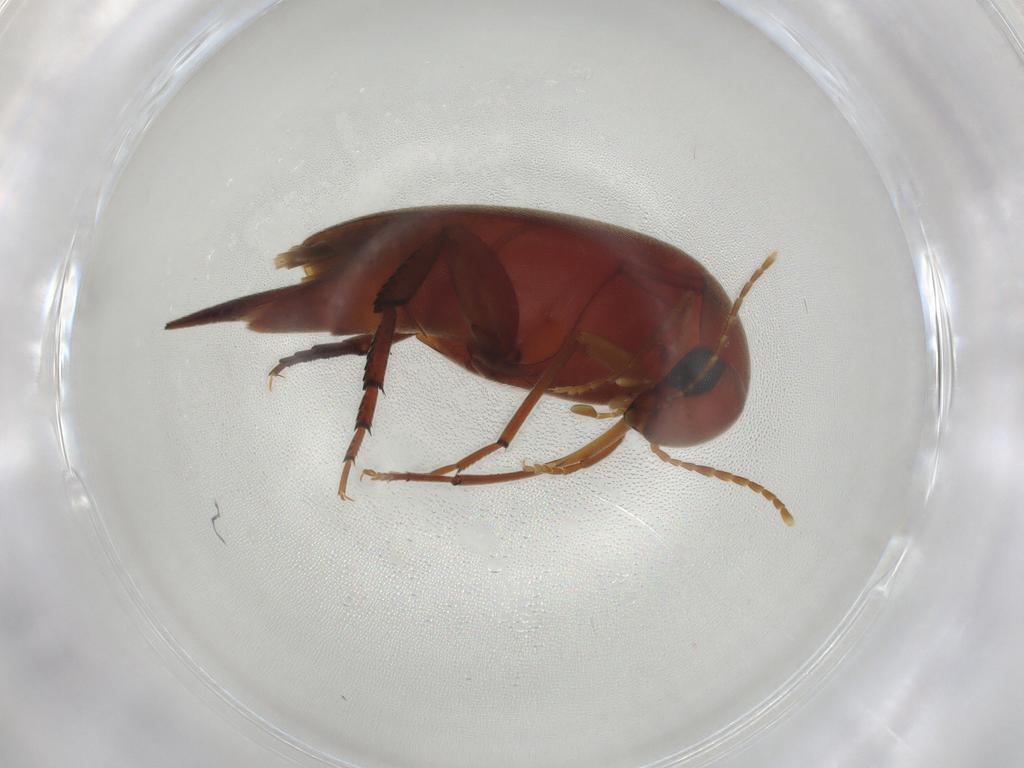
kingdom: Animalia
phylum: Arthropoda
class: Insecta
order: Coleoptera
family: Mordellidae
